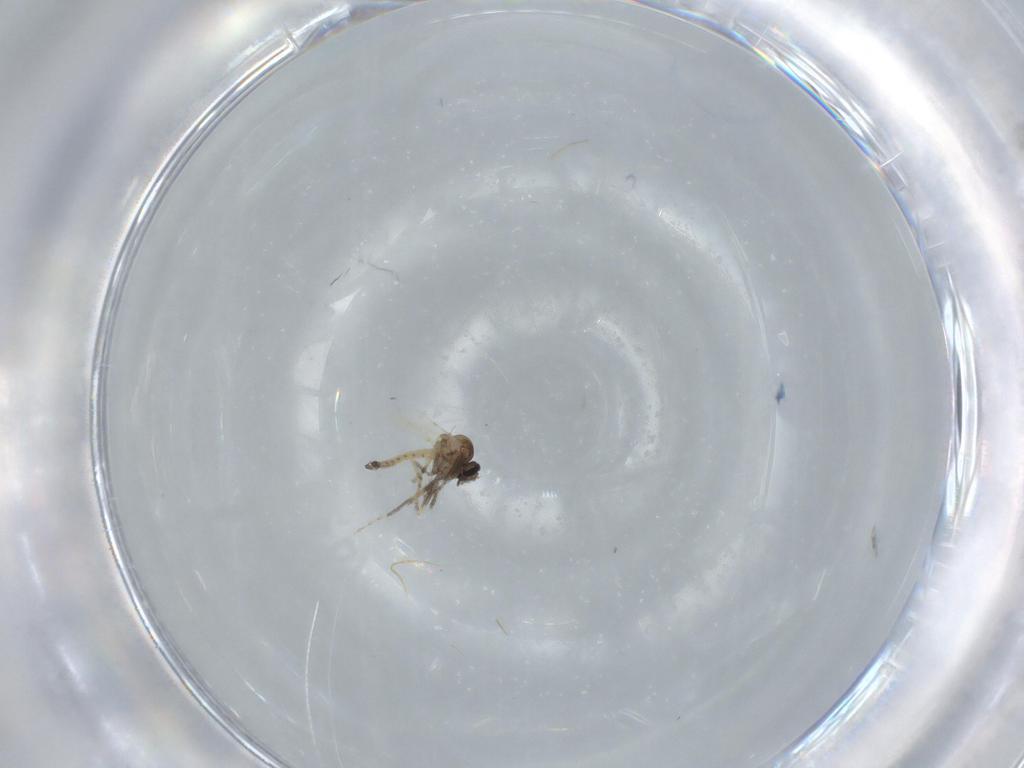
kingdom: Animalia
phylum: Arthropoda
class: Insecta
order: Diptera
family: Ceratopogonidae
